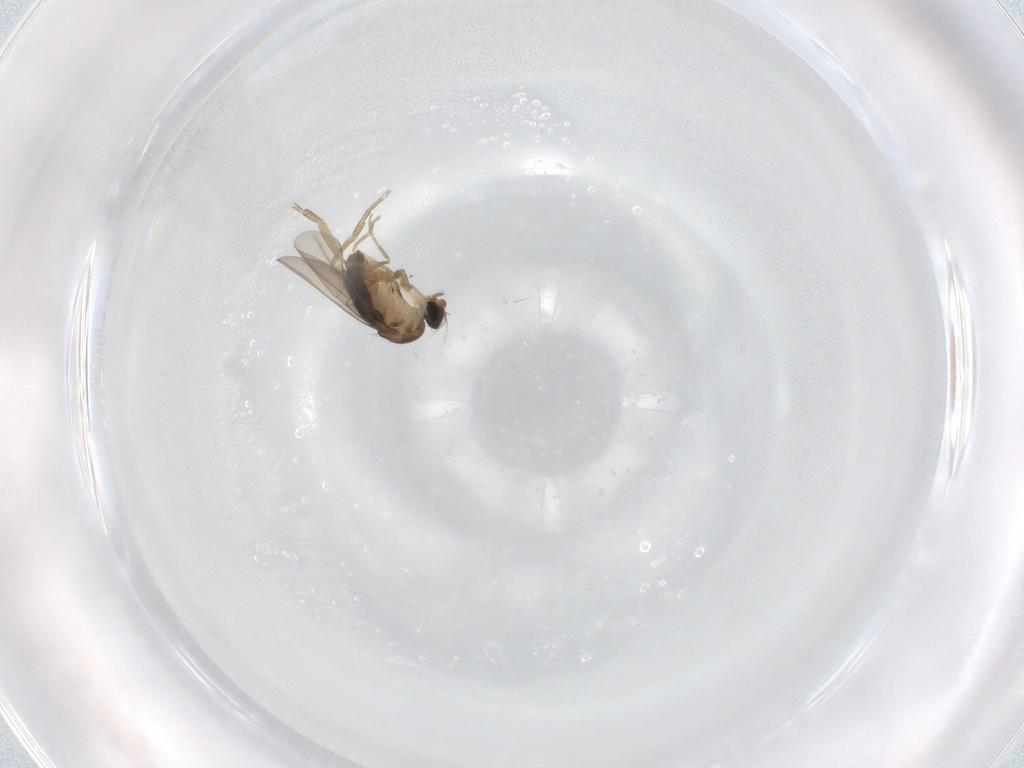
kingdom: Animalia
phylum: Arthropoda
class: Insecta
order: Diptera
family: Phoridae
